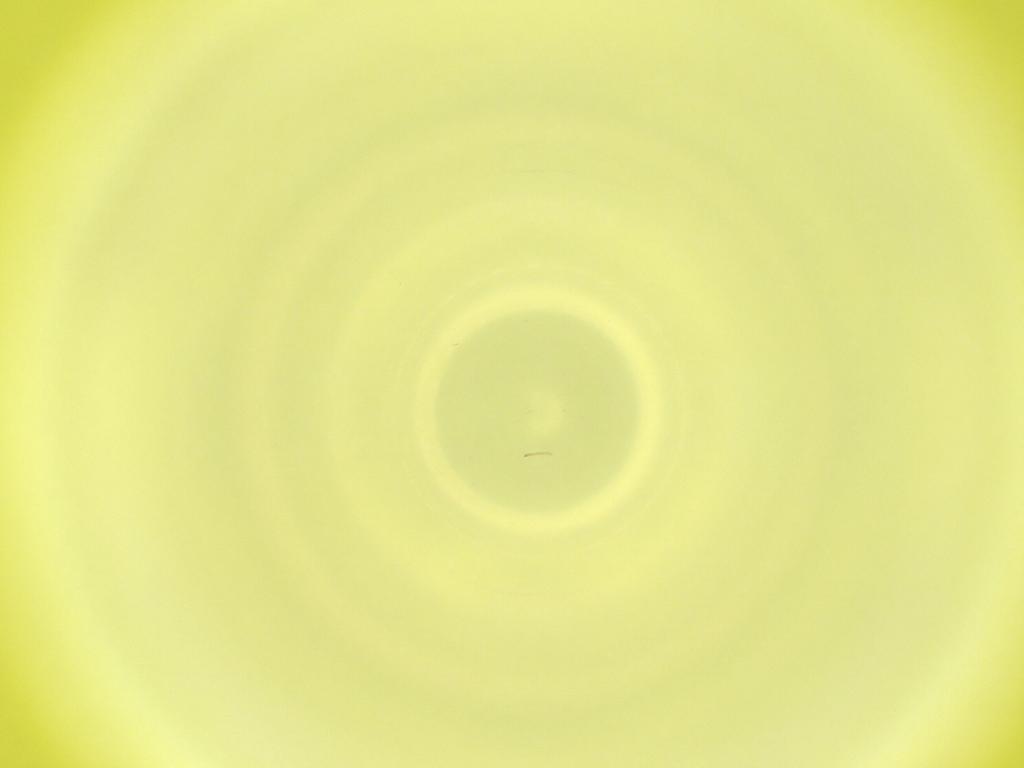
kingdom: Animalia
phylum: Arthropoda
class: Insecta
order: Diptera
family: Cecidomyiidae
